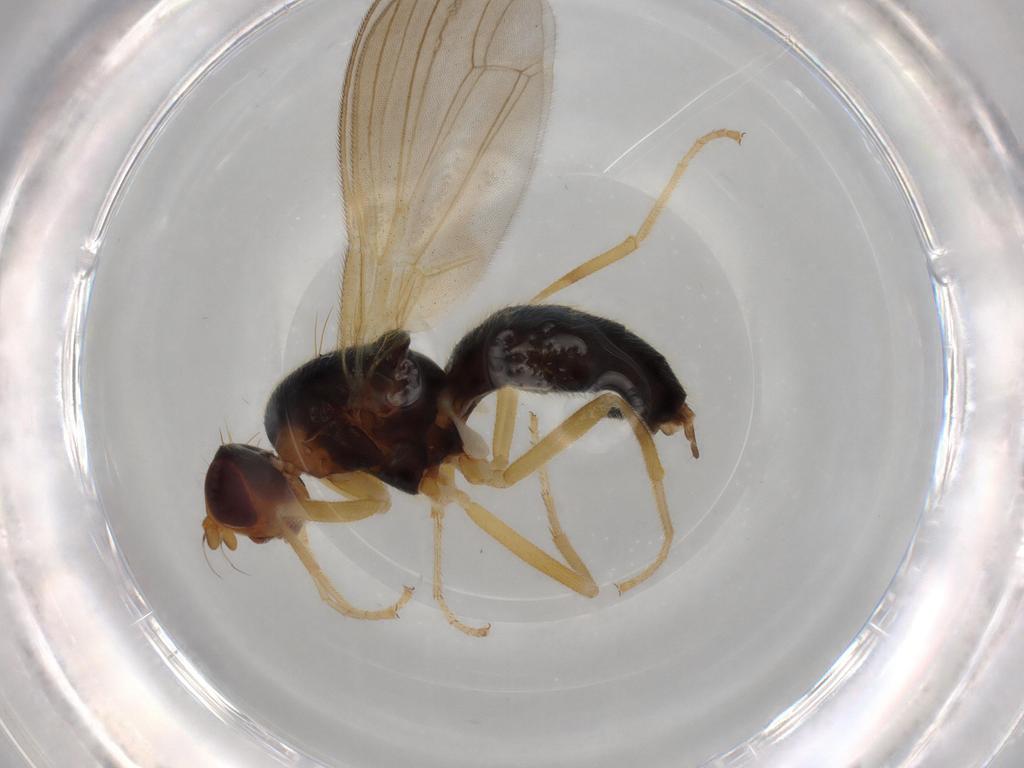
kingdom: Animalia
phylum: Arthropoda
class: Insecta
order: Diptera
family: Psilidae
